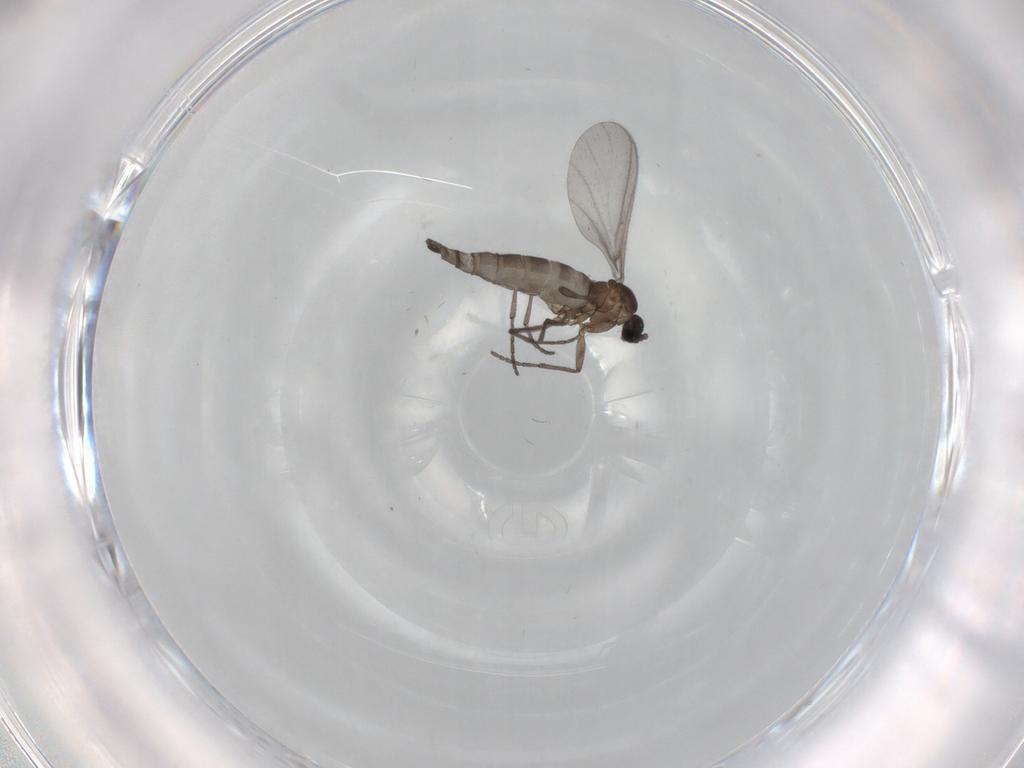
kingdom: Animalia
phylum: Arthropoda
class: Insecta
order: Diptera
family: Sciaridae
